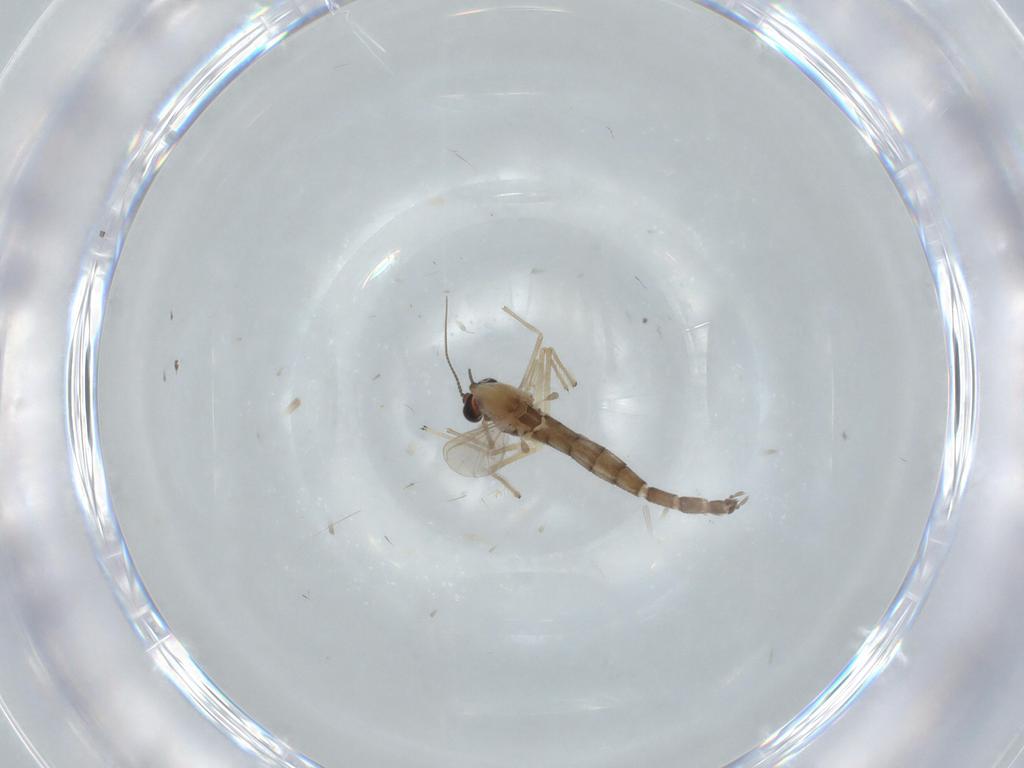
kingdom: Animalia
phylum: Arthropoda
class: Insecta
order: Diptera
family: Chironomidae
